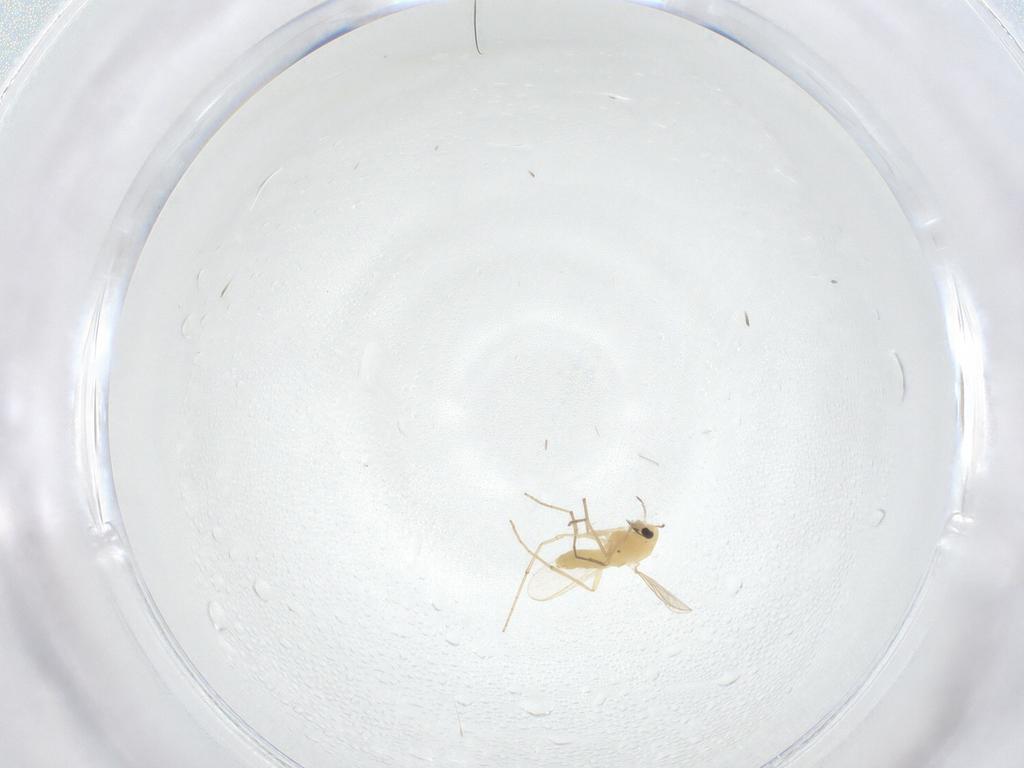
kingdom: Animalia
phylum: Arthropoda
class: Insecta
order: Diptera
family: Chironomidae
